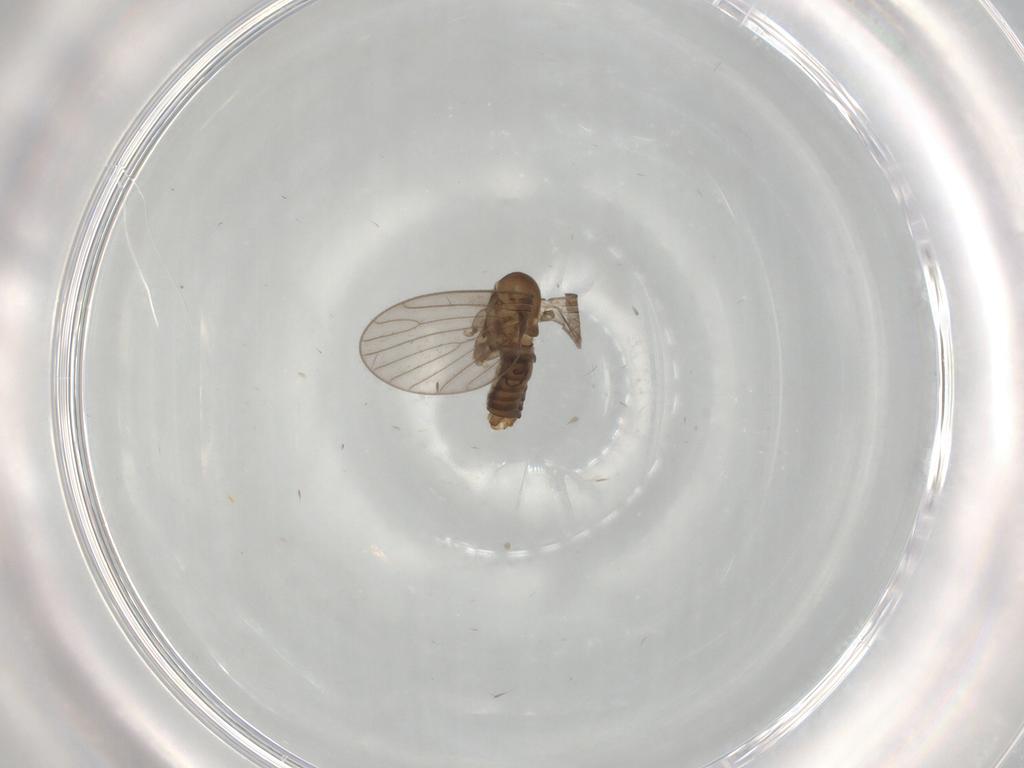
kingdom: Animalia
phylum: Arthropoda
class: Insecta
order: Diptera
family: Psychodidae
